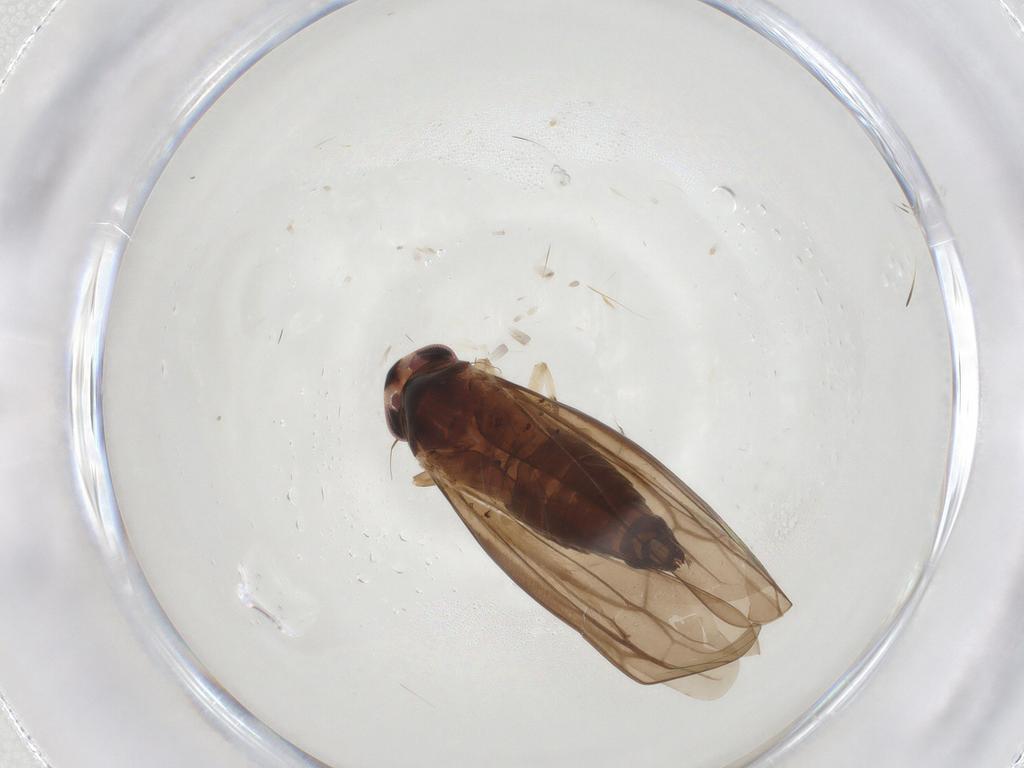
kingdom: Animalia
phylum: Arthropoda
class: Insecta
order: Hemiptera
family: Cicadellidae
